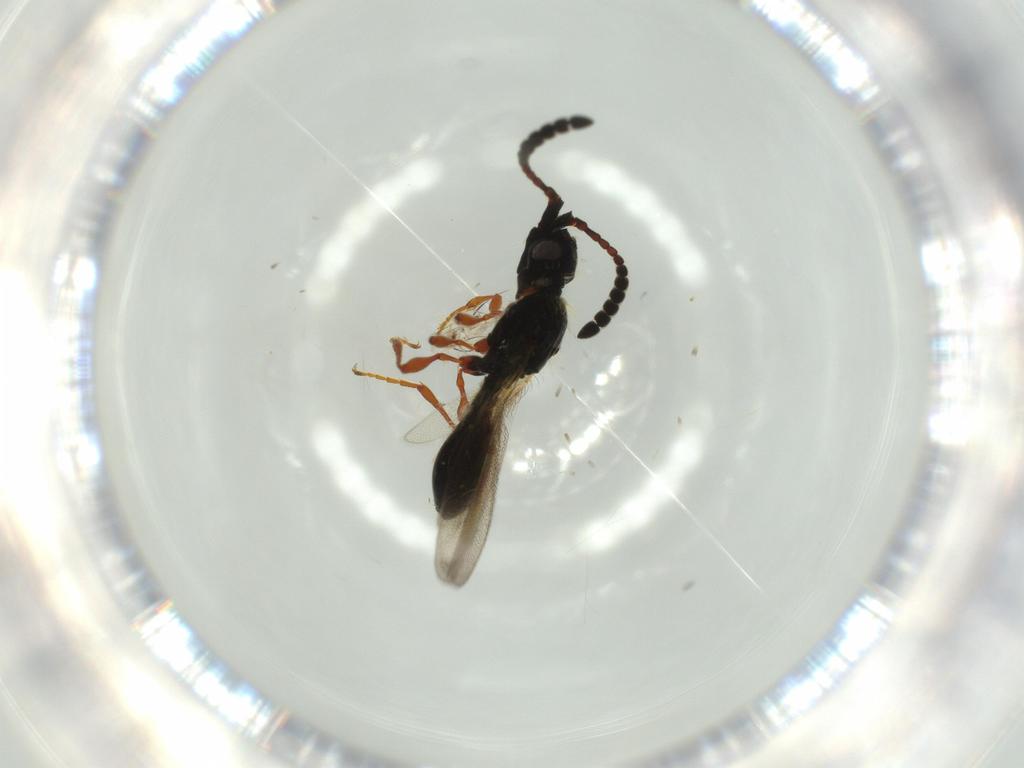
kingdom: Animalia
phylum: Arthropoda
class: Insecta
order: Hymenoptera
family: Diapriidae
